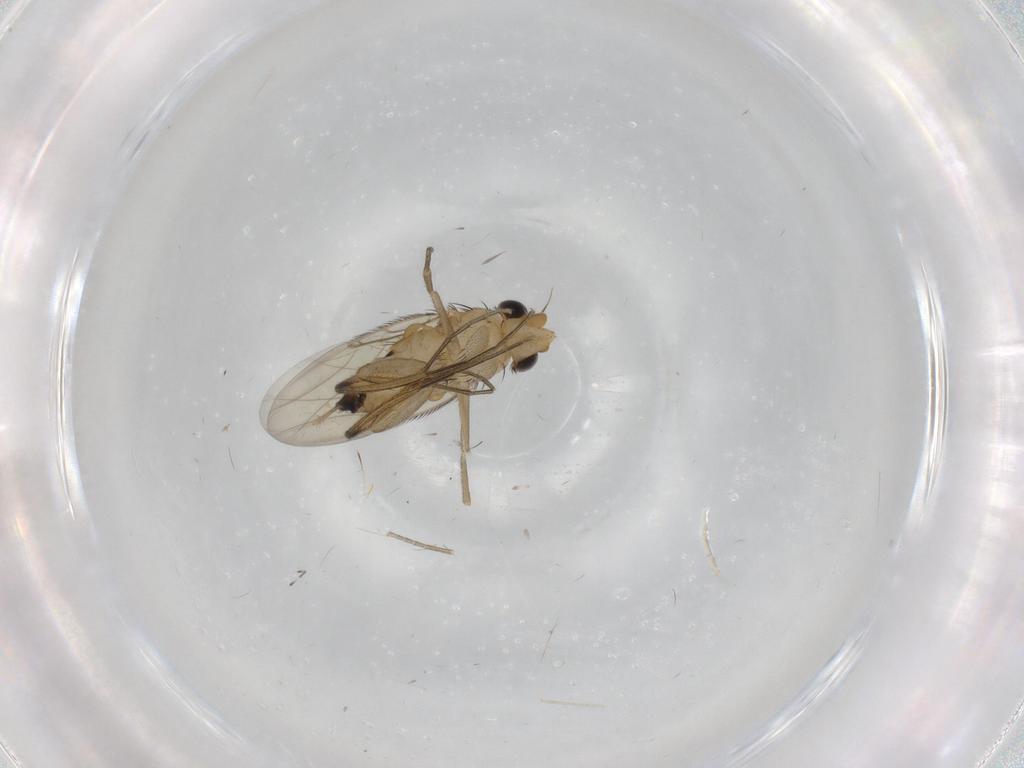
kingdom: Animalia
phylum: Arthropoda
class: Insecta
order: Diptera
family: Phoridae
